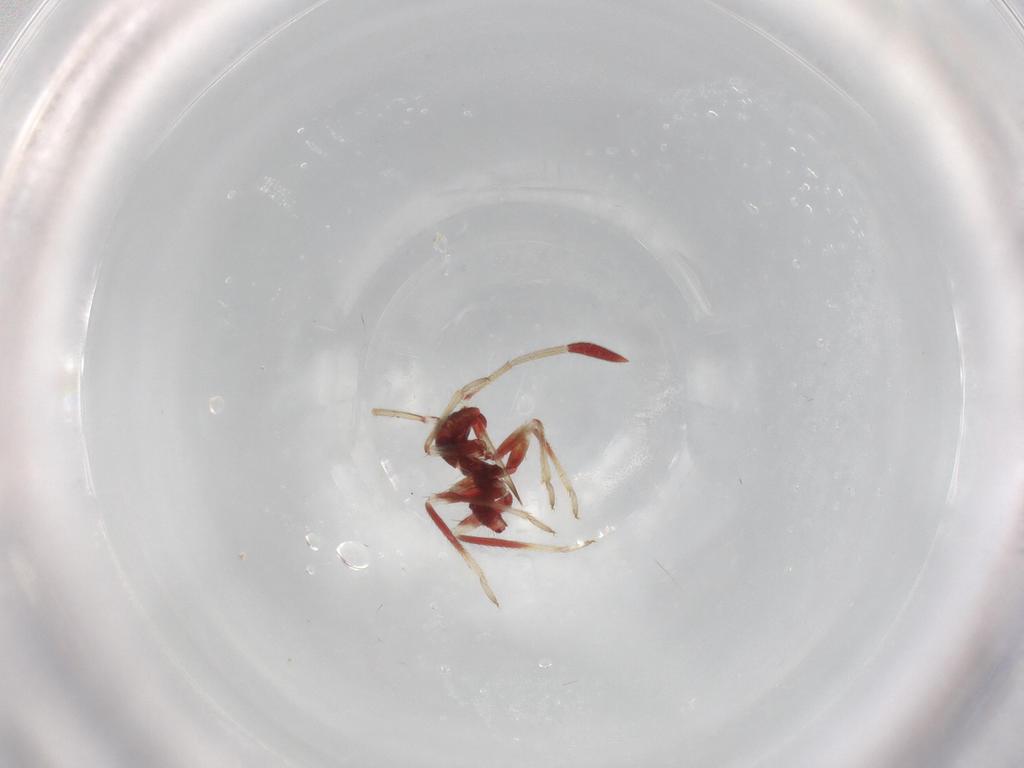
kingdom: Animalia
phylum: Arthropoda
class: Insecta
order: Hemiptera
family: Miridae
